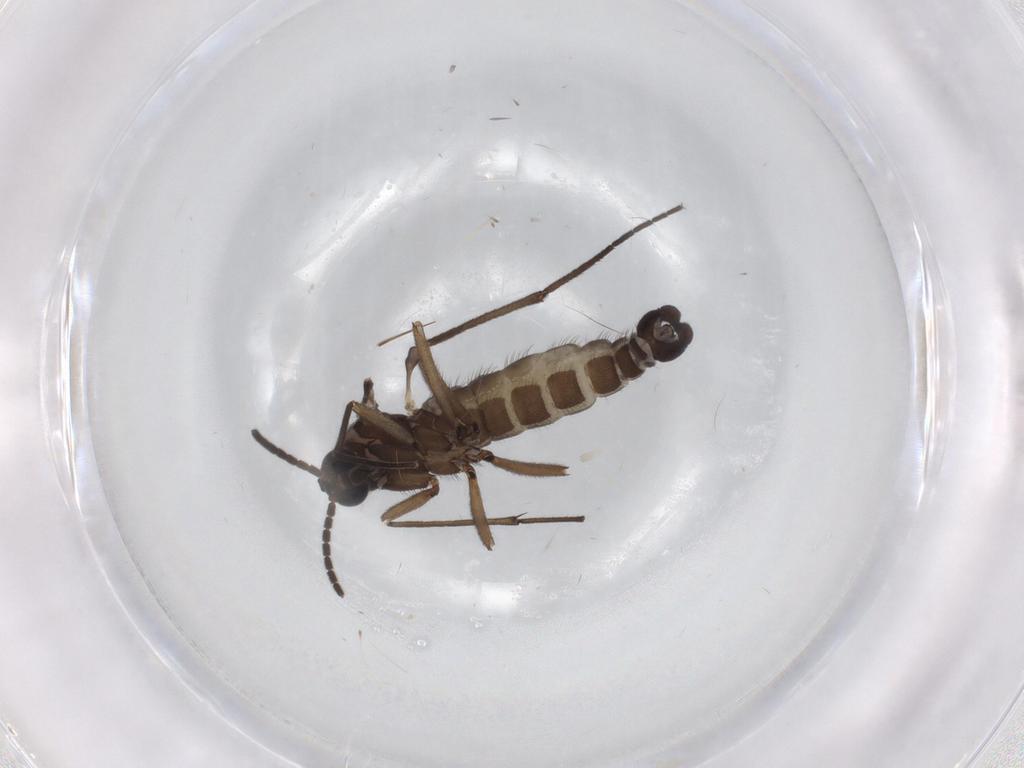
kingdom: Animalia
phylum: Arthropoda
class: Insecta
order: Diptera
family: Sciaridae
